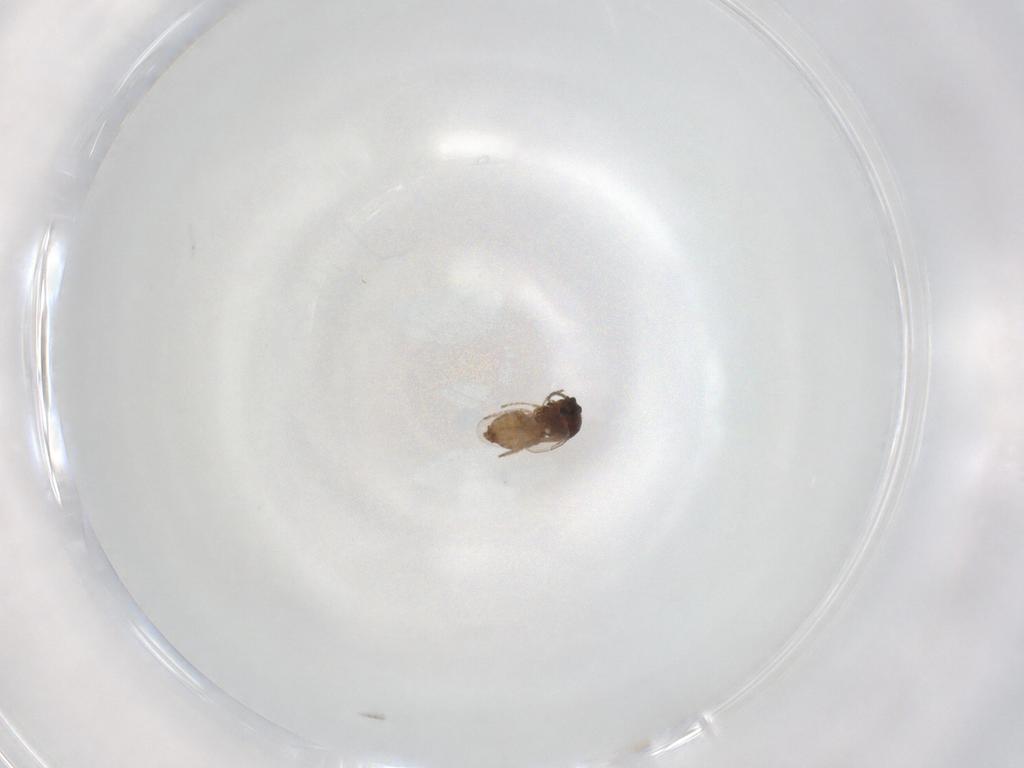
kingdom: Animalia
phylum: Arthropoda
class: Insecta
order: Diptera
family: Ceratopogonidae
